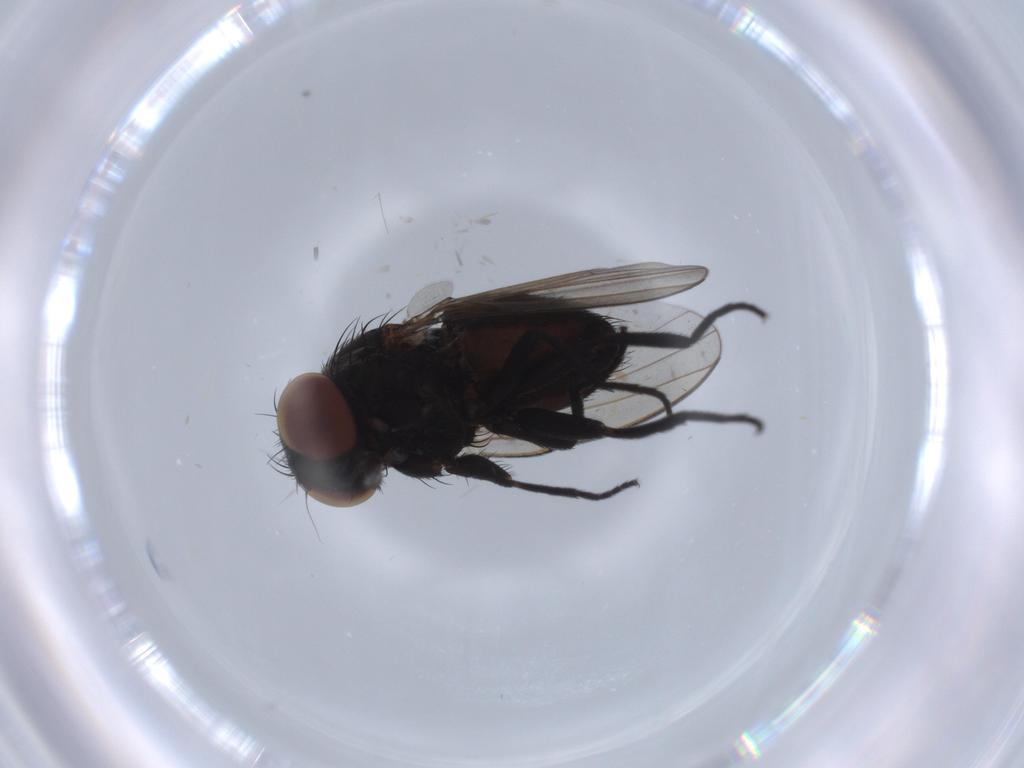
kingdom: Animalia
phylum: Arthropoda
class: Insecta
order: Diptera
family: Milichiidae
